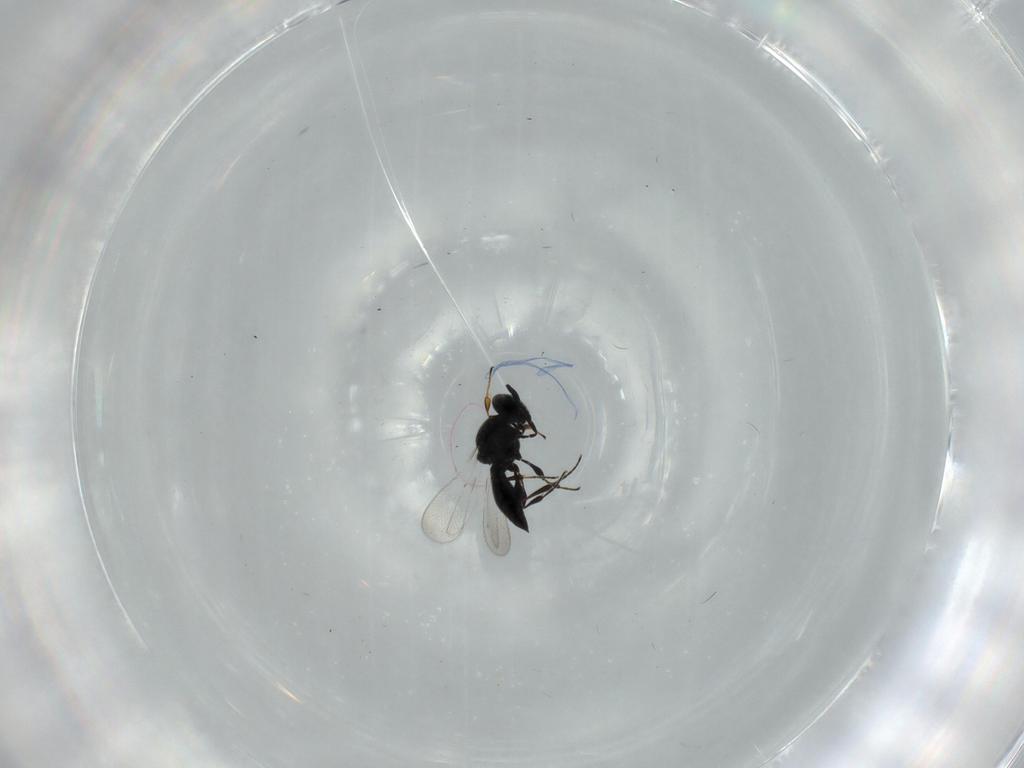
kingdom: Animalia
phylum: Arthropoda
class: Insecta
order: Hymenoptera
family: Platygastridae
